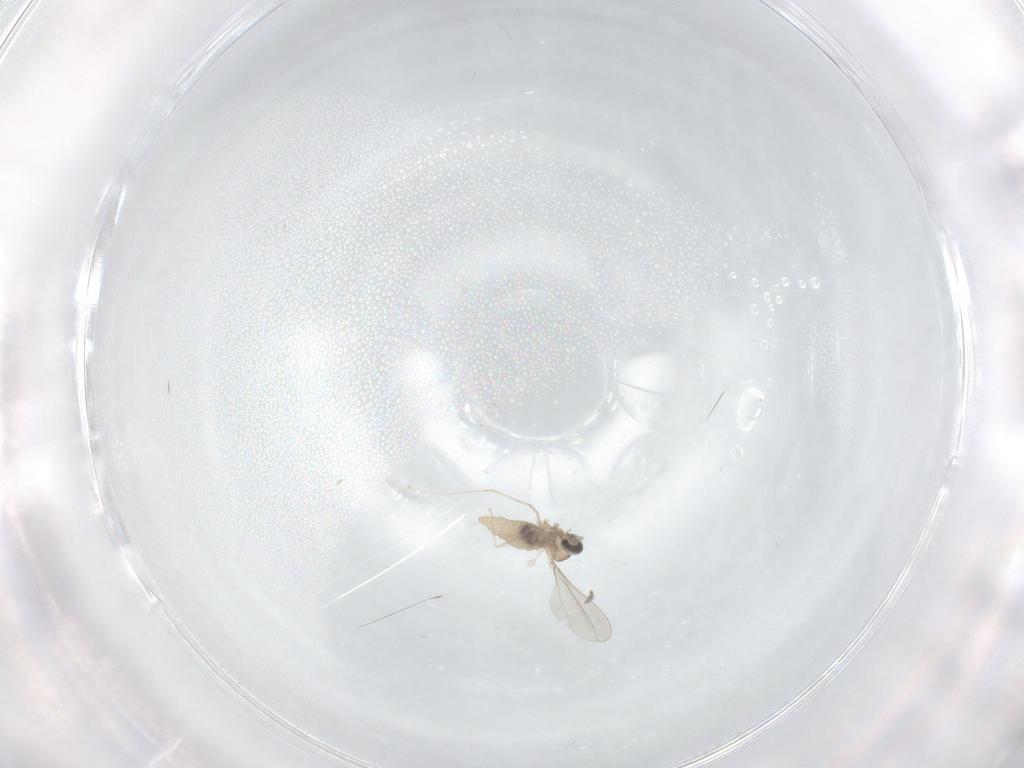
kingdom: Animalia
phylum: Arthropoda
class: Insecta
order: Diptera
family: Cecidomyiidae
